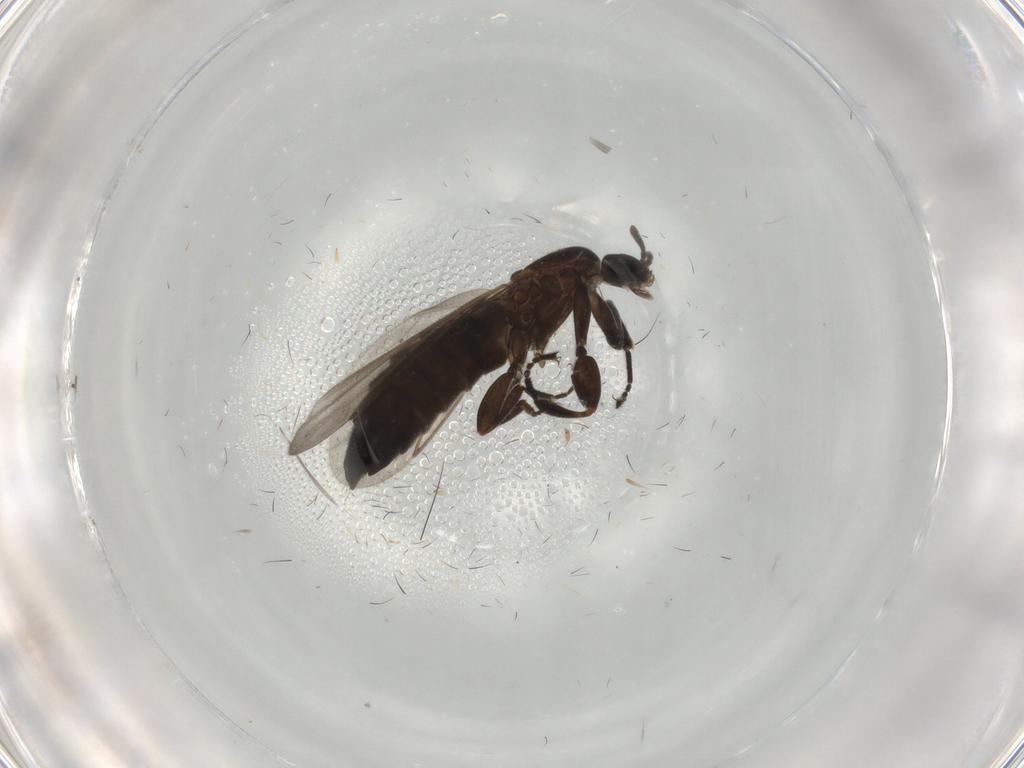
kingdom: Animalia
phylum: Arthropoda
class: Insecta
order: Diptera
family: Scatopsidae
